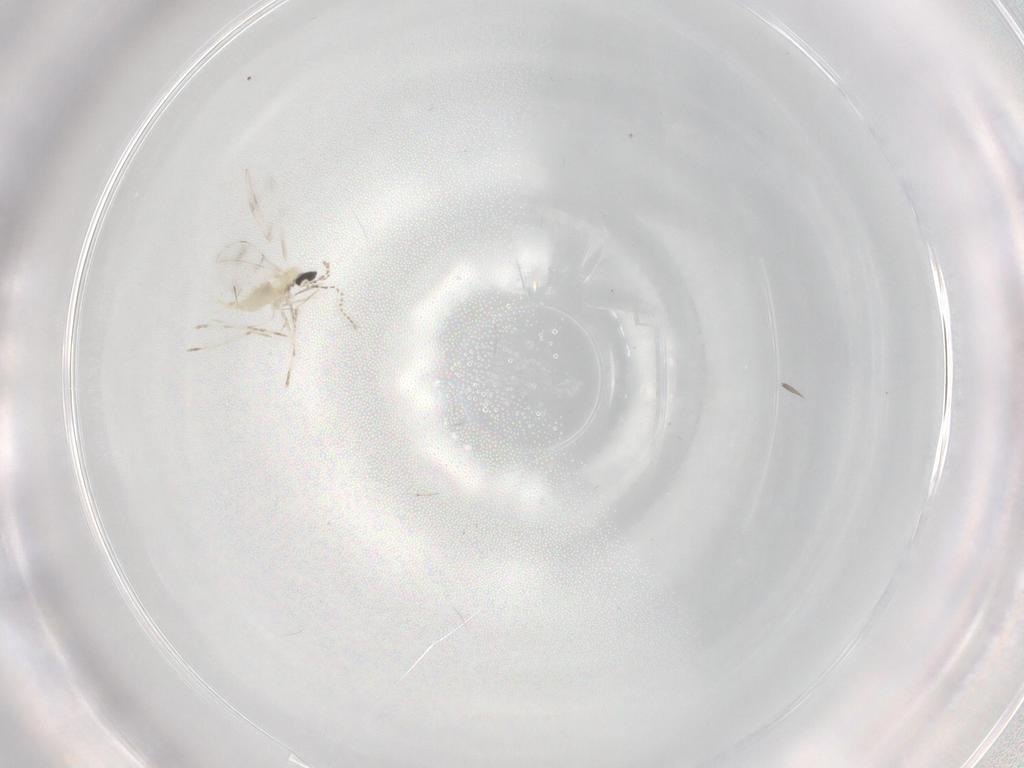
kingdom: Animalia
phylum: Arthropoda
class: Insecta
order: Diptera
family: Cecidomyiidae
